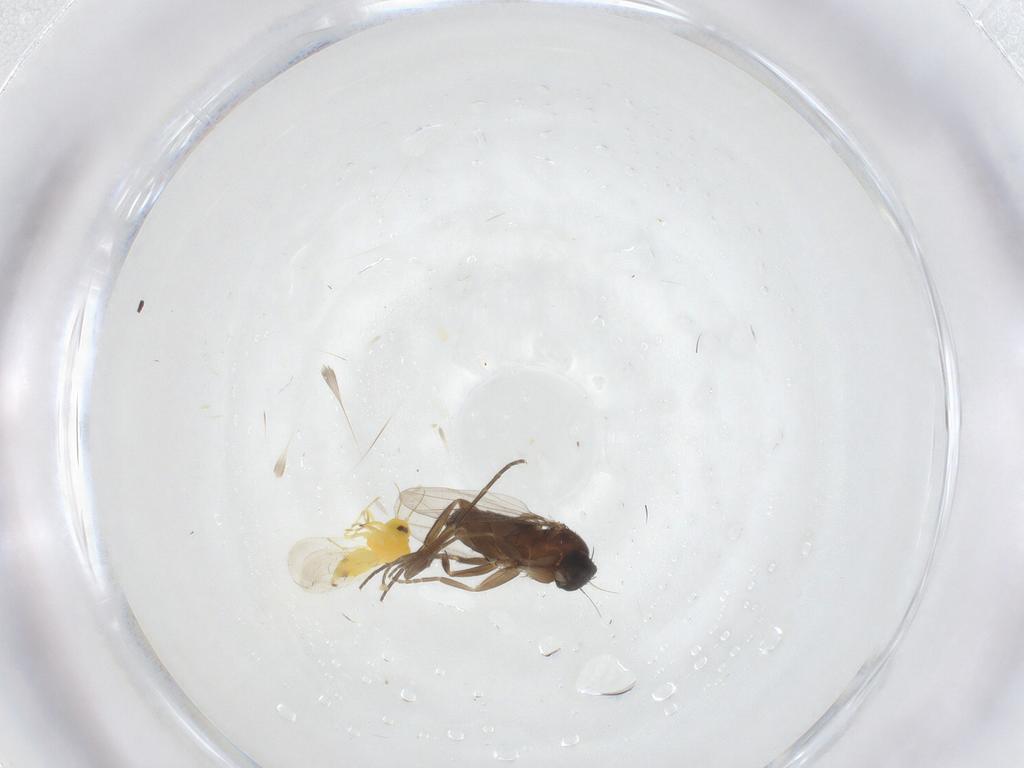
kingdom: Animalia
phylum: Arthropoda
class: Insecta
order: Diptera
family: Phoridae
